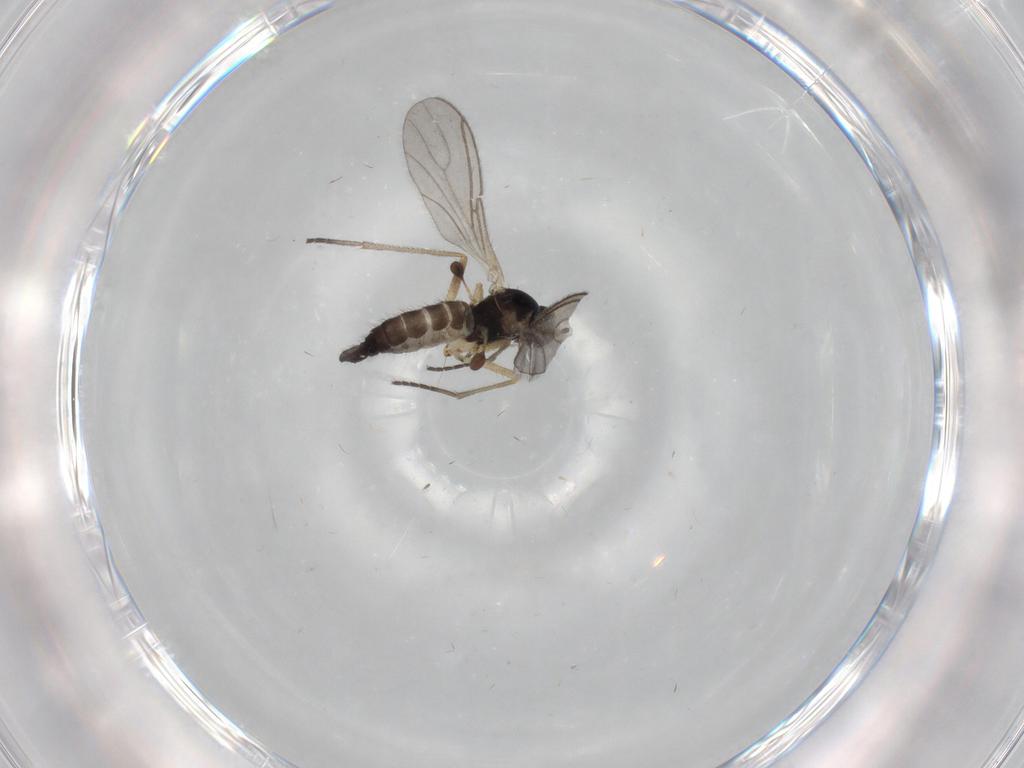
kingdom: Animalia
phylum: Arthropoda
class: Insecta
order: Diptera
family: Sciaridae
